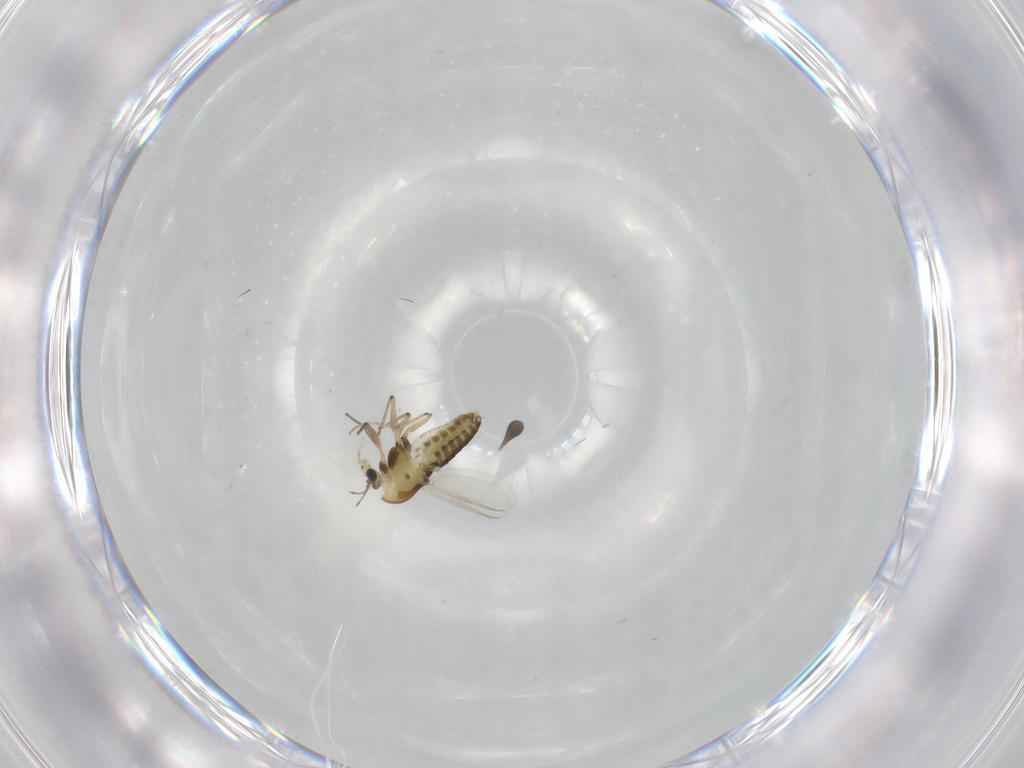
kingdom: Animalia
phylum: Arthropoda
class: Insecta
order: Diptera
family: Chironomidae
